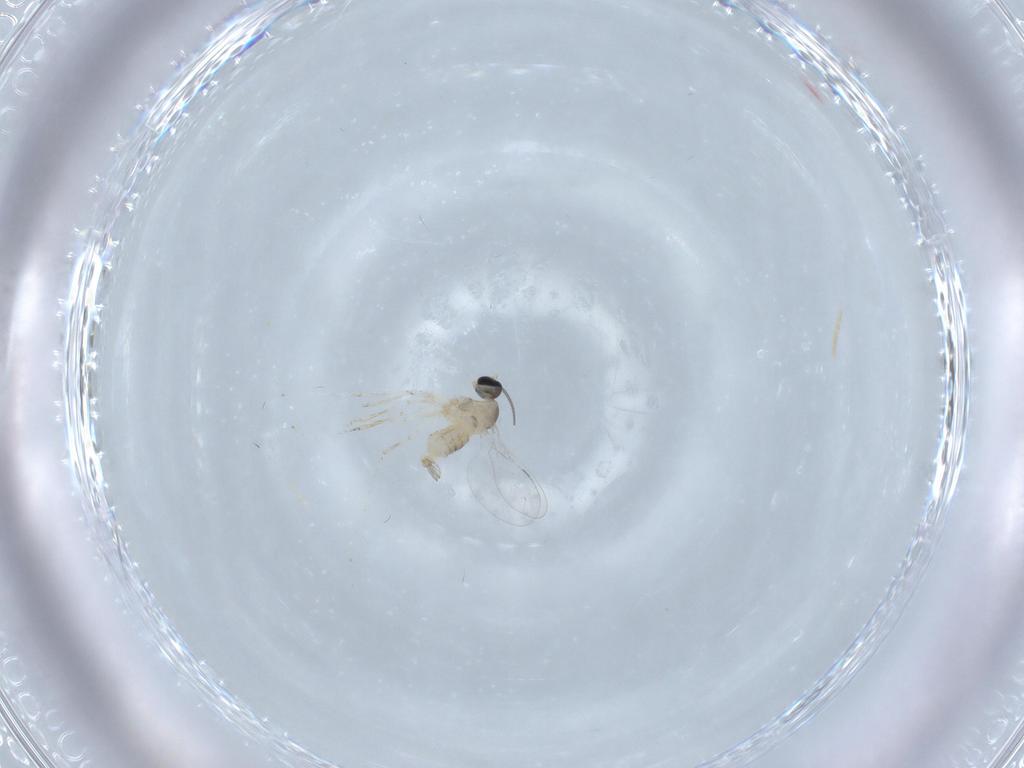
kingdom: Animalia
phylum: Arthropoda
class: Insecta
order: Diptera
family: Cecidomyiidae
